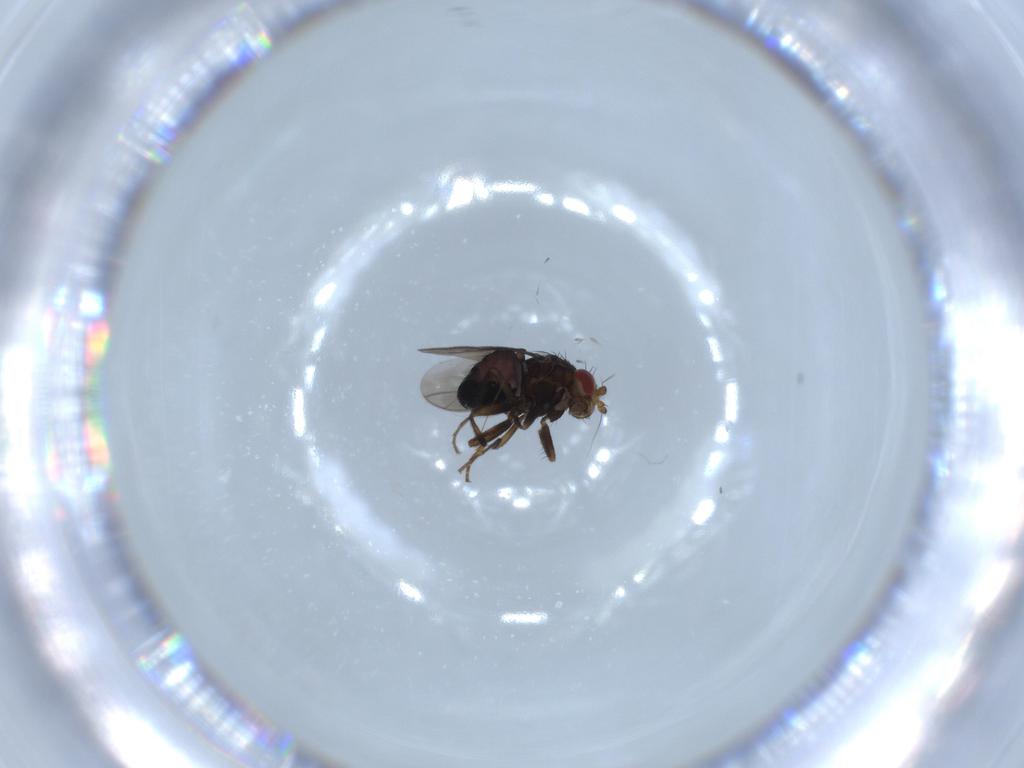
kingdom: Animalia
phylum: Arthropoda
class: Insecta
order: Diptera
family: Sphaeroceridae
